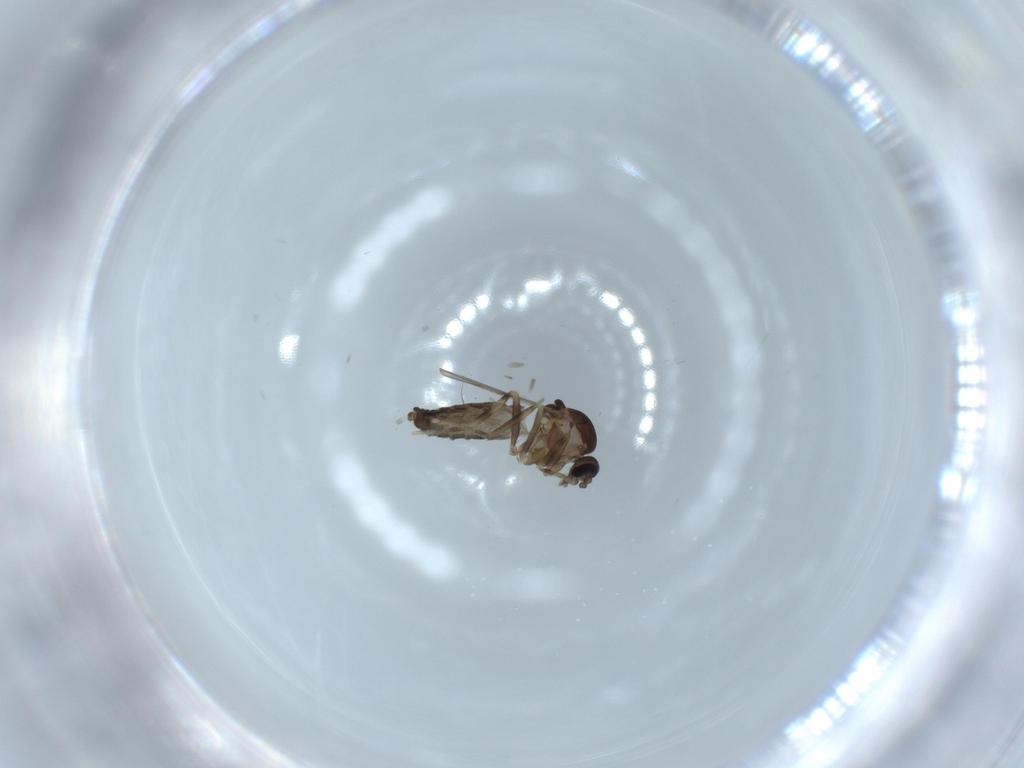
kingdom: Animalia
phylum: Arthropoda
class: Insecta
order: Diptera
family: Ceratopogonidae
